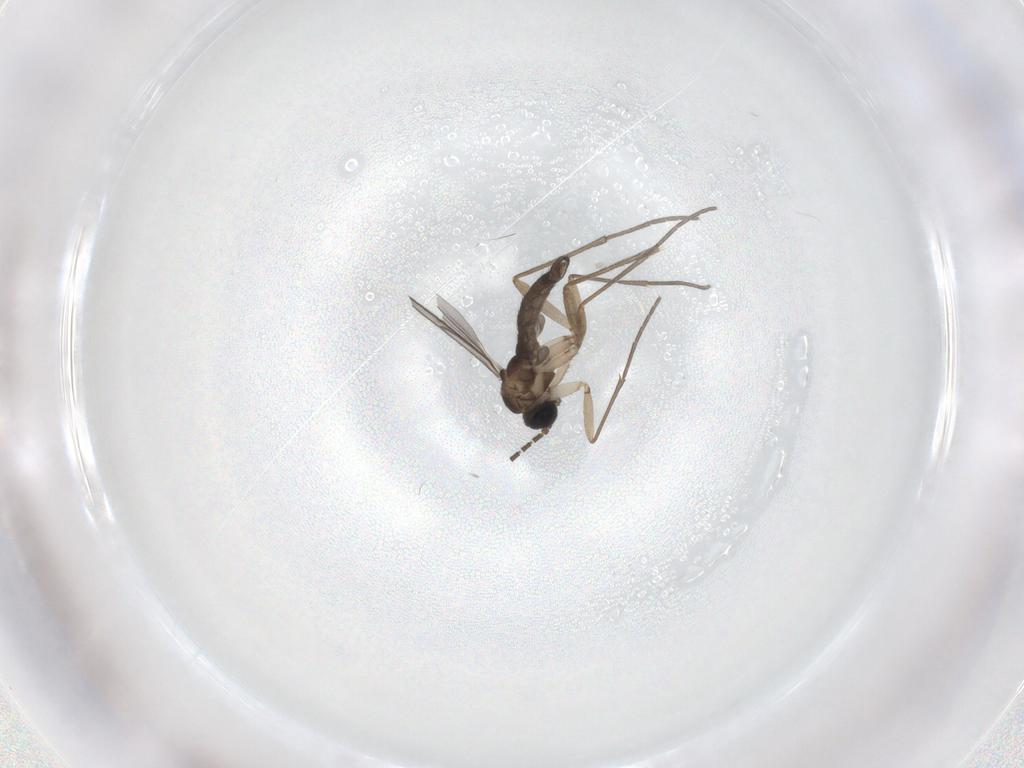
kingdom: Animalia
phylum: Arthropoda
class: Insecta
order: Diptera
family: Sciaridae
